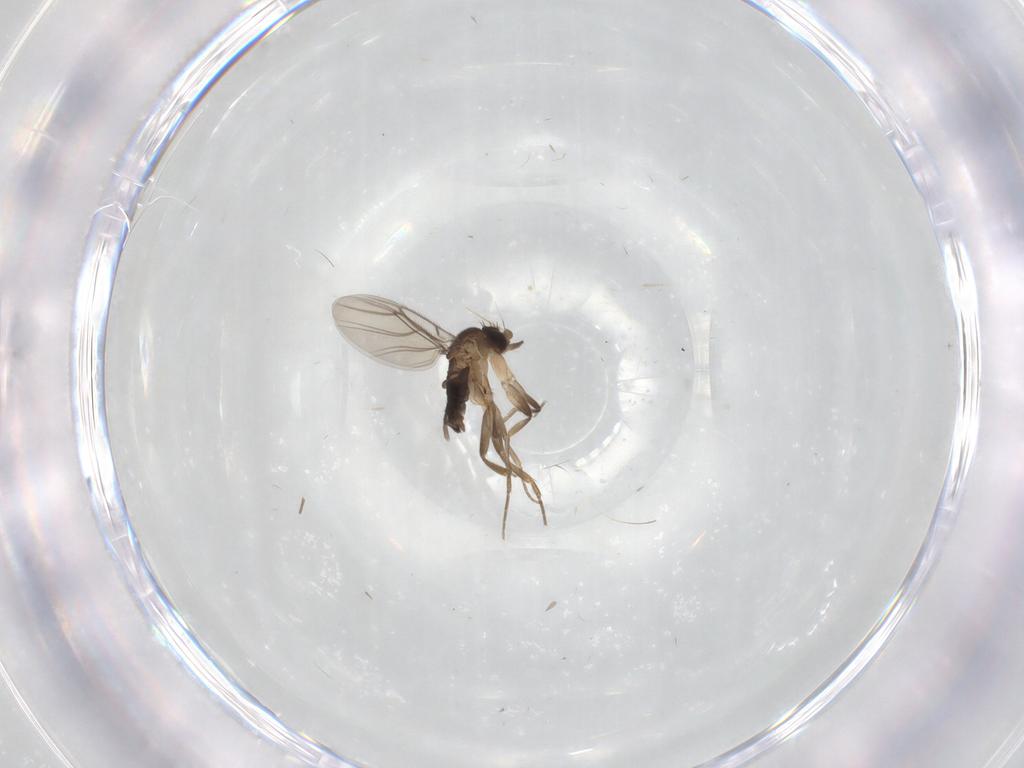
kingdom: Animalia
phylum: Arthropoda
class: Insecta
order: Diptera
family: Phoridae
